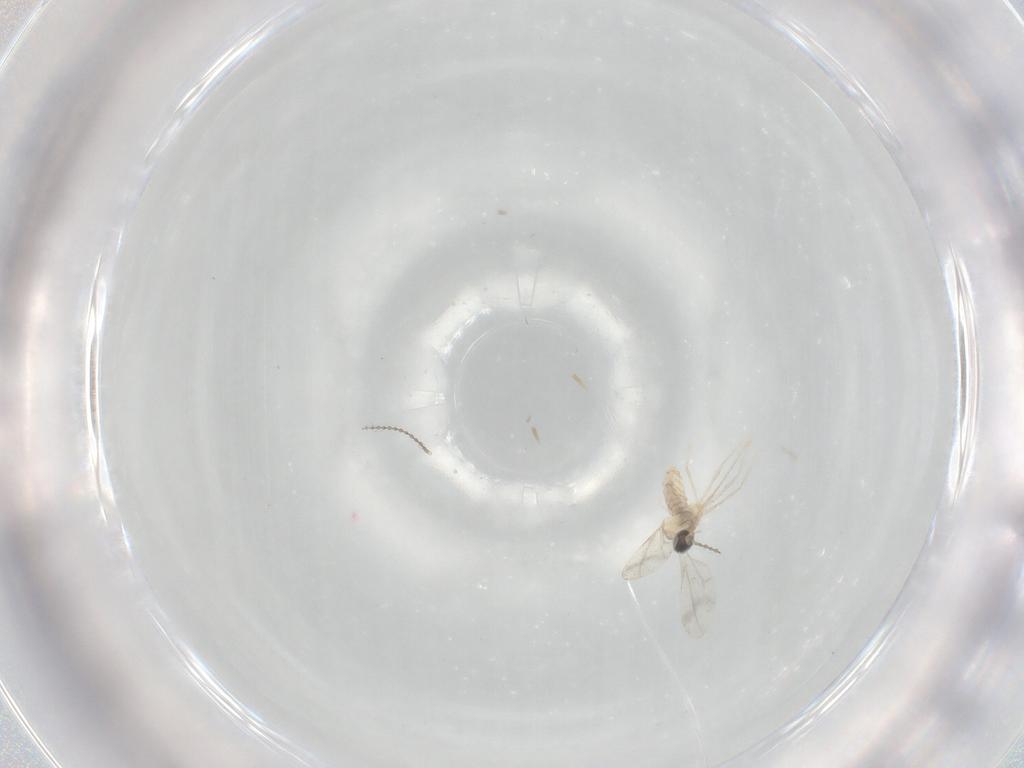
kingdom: Animalia
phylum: Arthropoda
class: Insecta
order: Diptera
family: Cecidomyiidae
